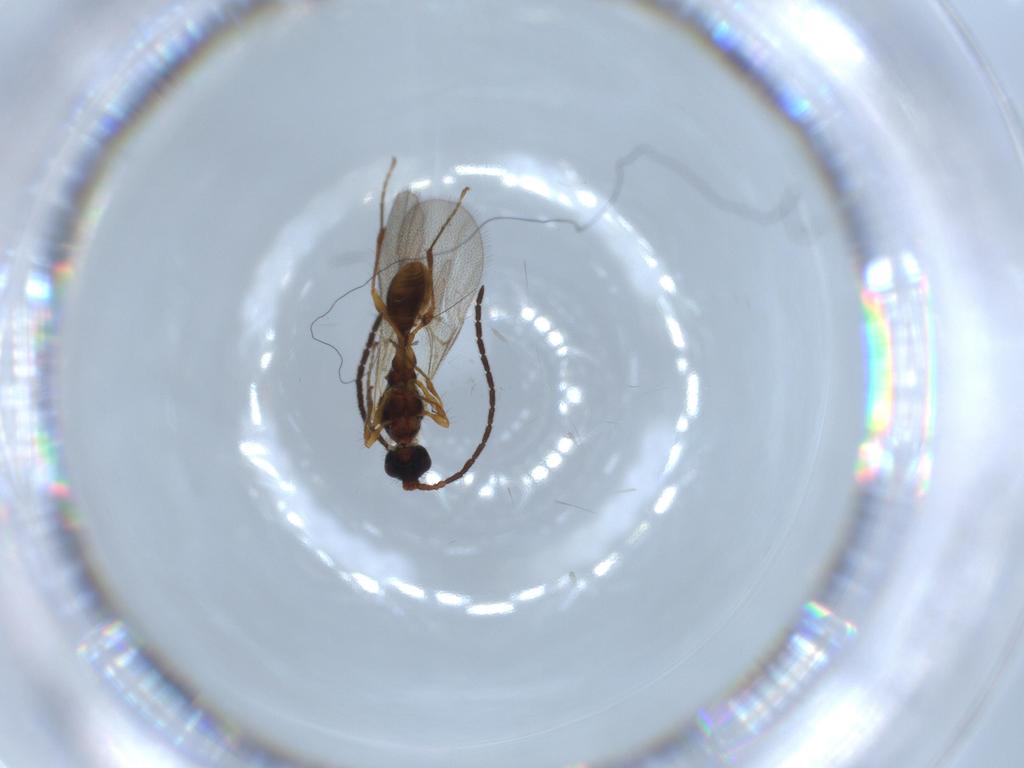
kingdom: Animalia
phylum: Arthropoda
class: Insecta
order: Hymenoptera
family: Diapriidae
